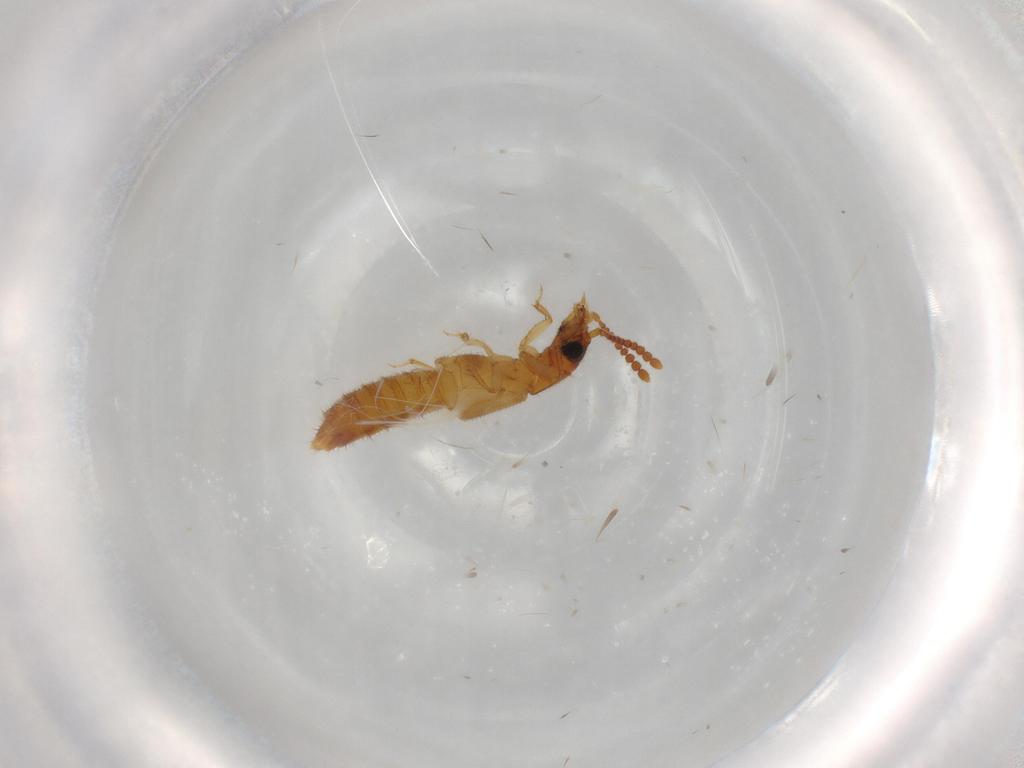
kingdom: Animalia
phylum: Arthropoda
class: Insecta
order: Coleoptera
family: Staphylinidae
